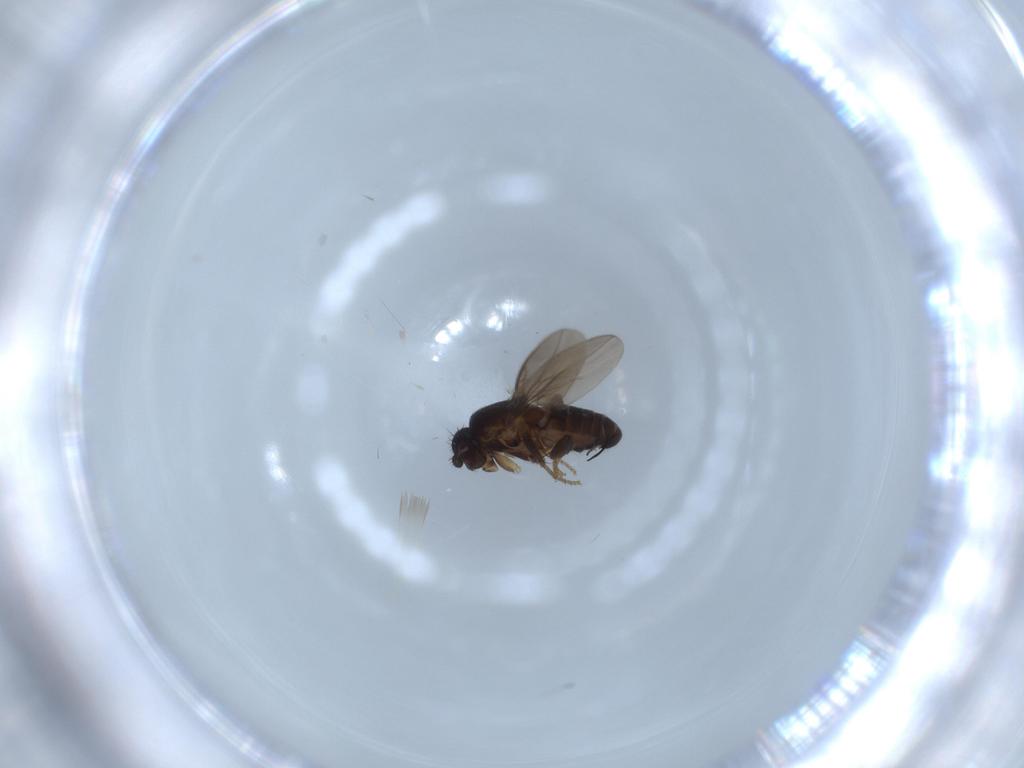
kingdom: Animalia
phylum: Arthropoda
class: Insecta
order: Diptera
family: Sphaeroceridae
